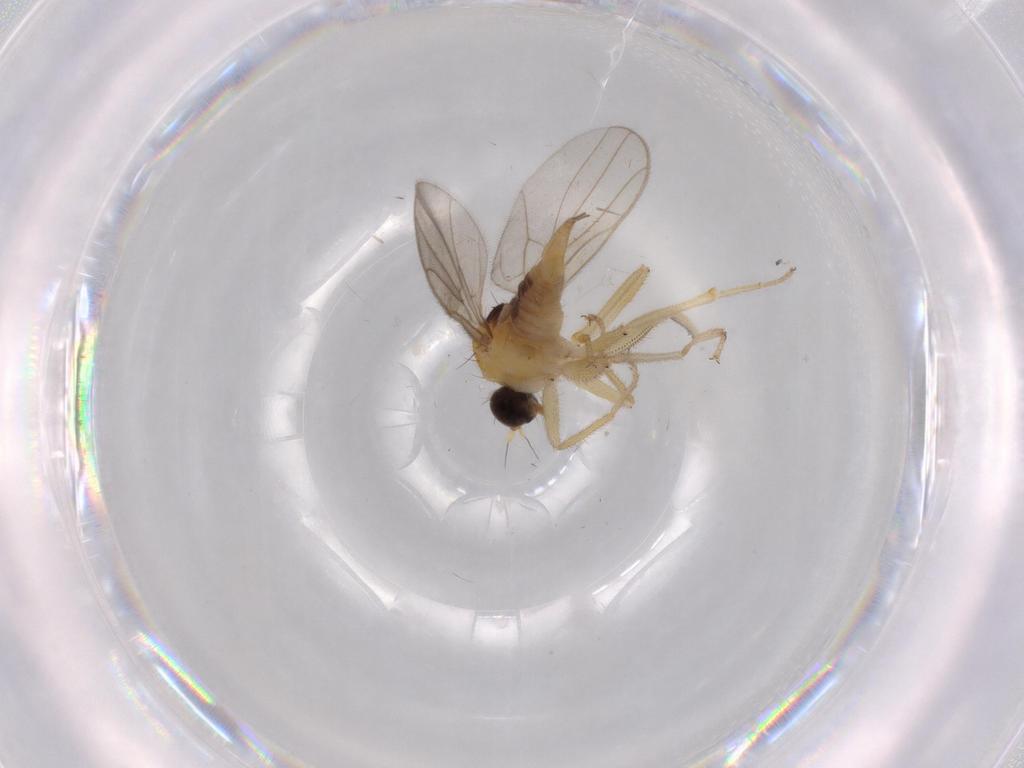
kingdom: Animalia
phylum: Arthropoda
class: Insecta
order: Diptera
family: Hybotidae
